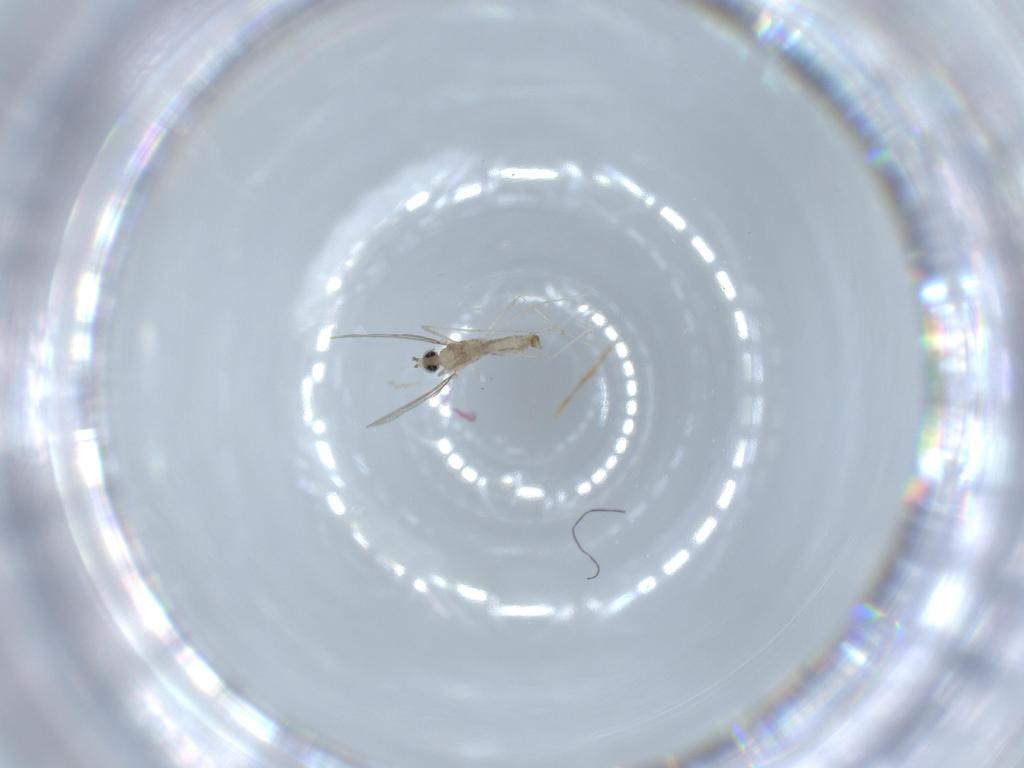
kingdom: Animalia
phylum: Arthropoda
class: Insecta
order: Diptera
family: Cecidomyiidae
